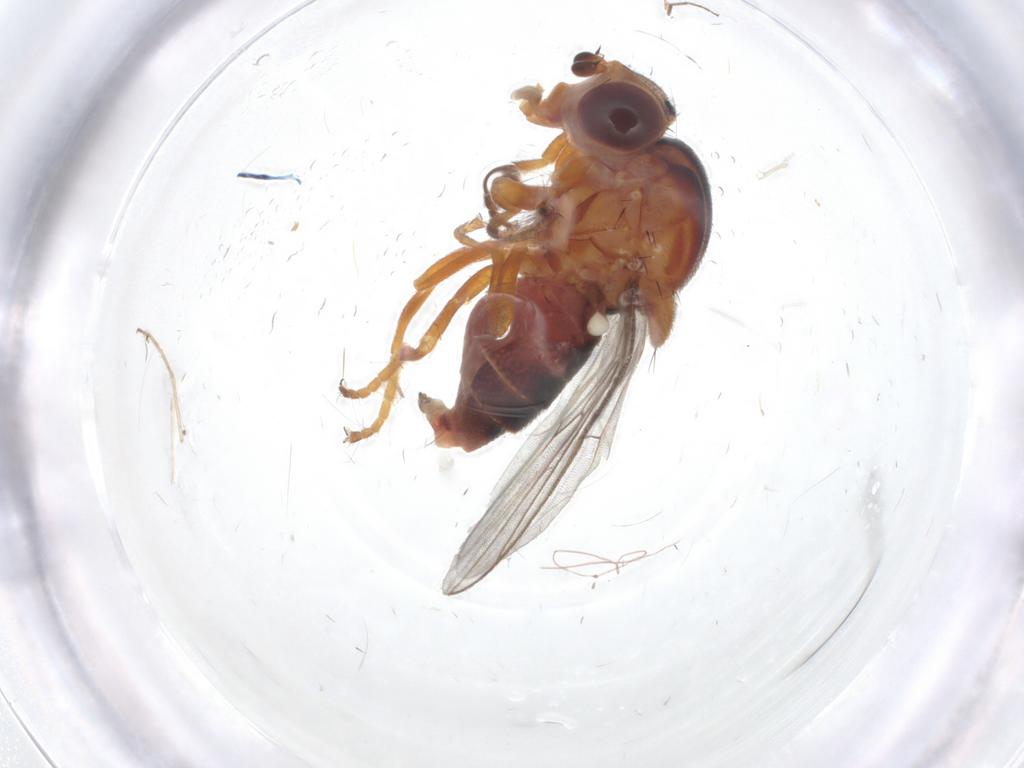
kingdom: Animalia
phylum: Arthropoda
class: Insecta
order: Diptera
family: Chloropidae
